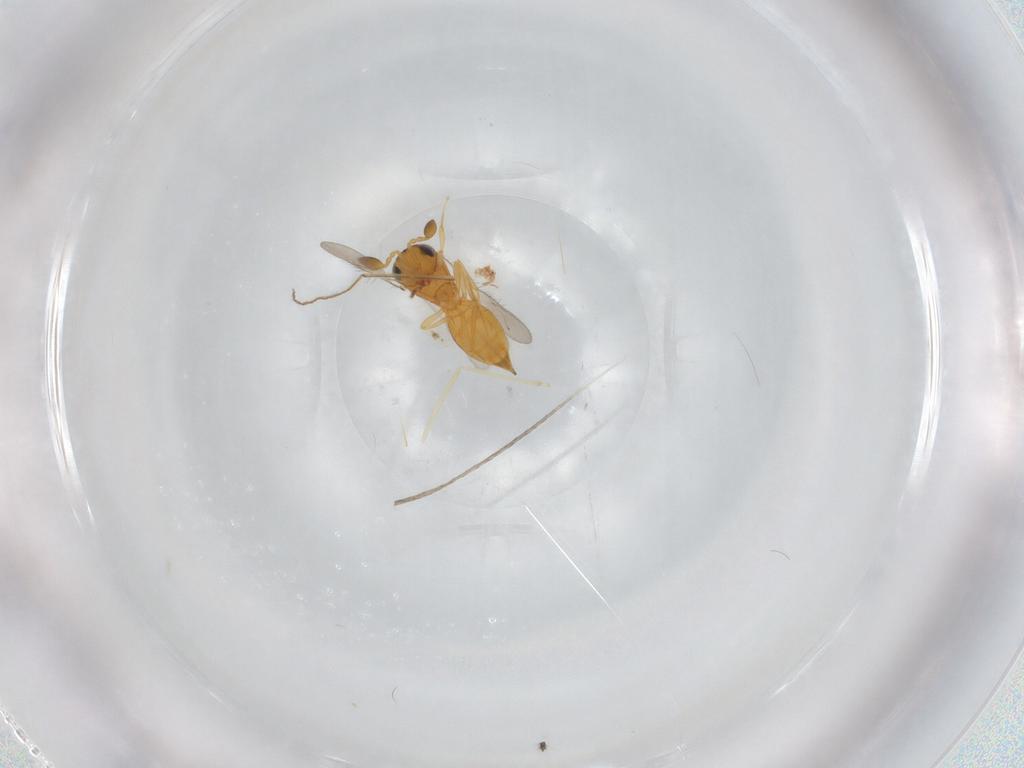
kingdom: Animalia
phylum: Arthropoda
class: Insecta
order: Hymenoptera
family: Scelionidae
